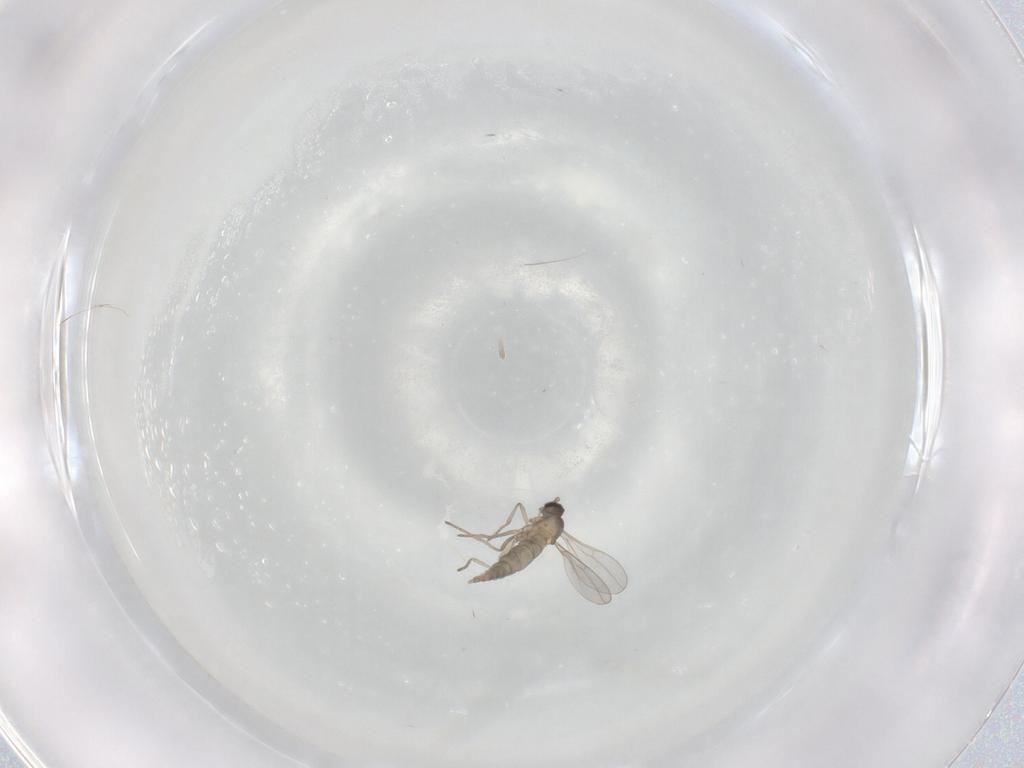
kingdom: Animalia
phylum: Arthropoda
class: Insecta
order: Diptera
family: Cecidomyiidae
